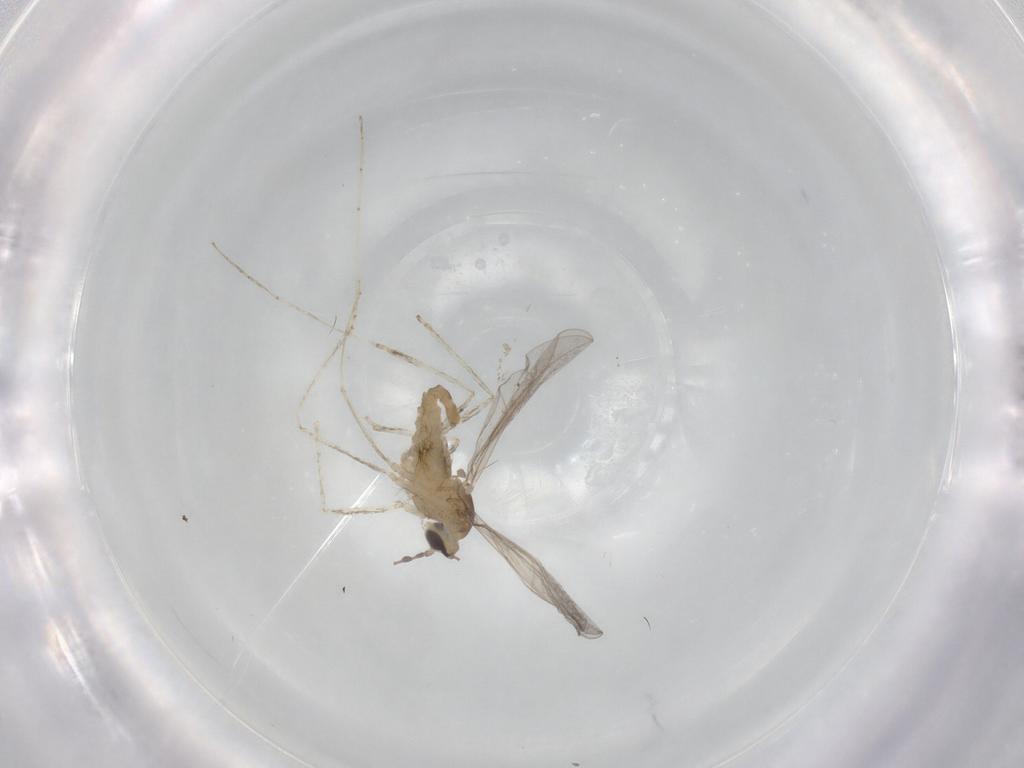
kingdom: Animalia
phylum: Arthropoda
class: Insecta
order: Diptera
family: Cecidomyiidae
